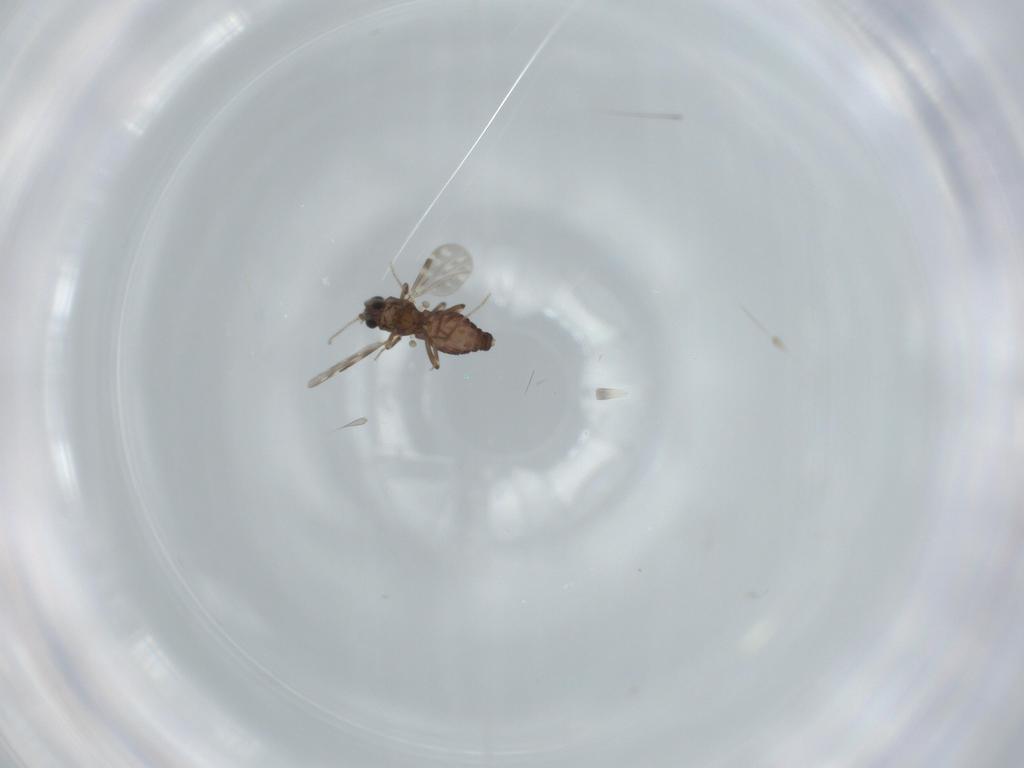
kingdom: Animalia
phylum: Arthropoda
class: Insecta
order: Diptera
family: Ceratopogonidae
